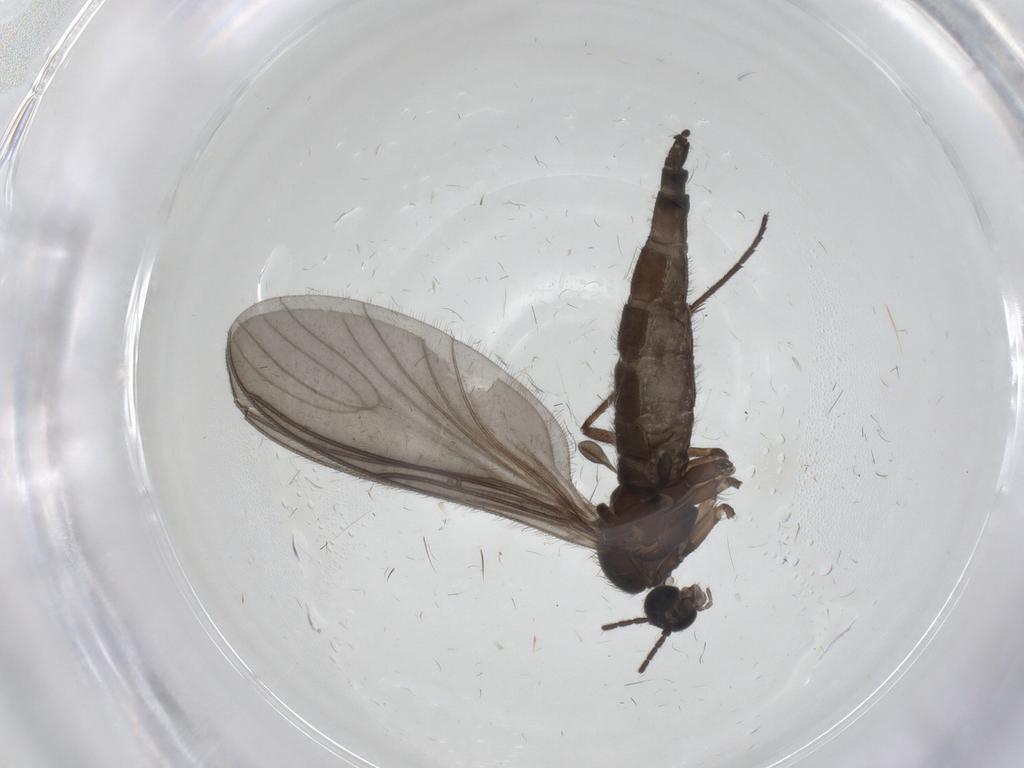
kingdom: Animalia
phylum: Arthropoda
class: Insecta
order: Diptera
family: Sciaridae
